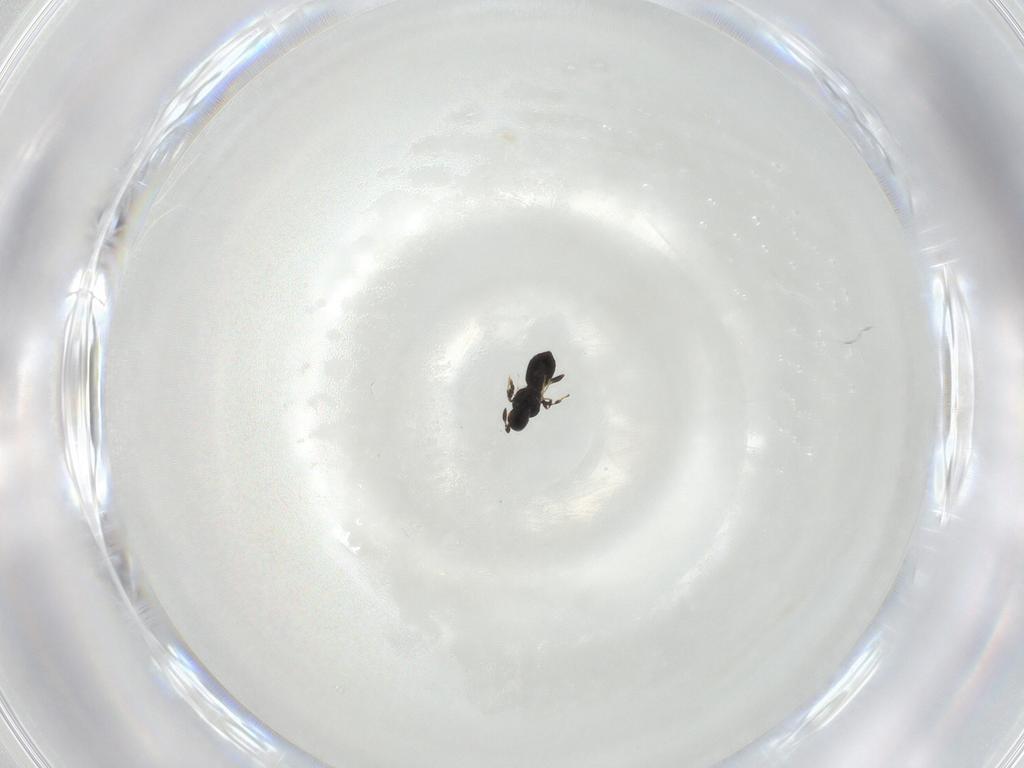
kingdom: Animalia
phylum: Arthropoda
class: Insecta
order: Hymenoptera
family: Platygastridae
